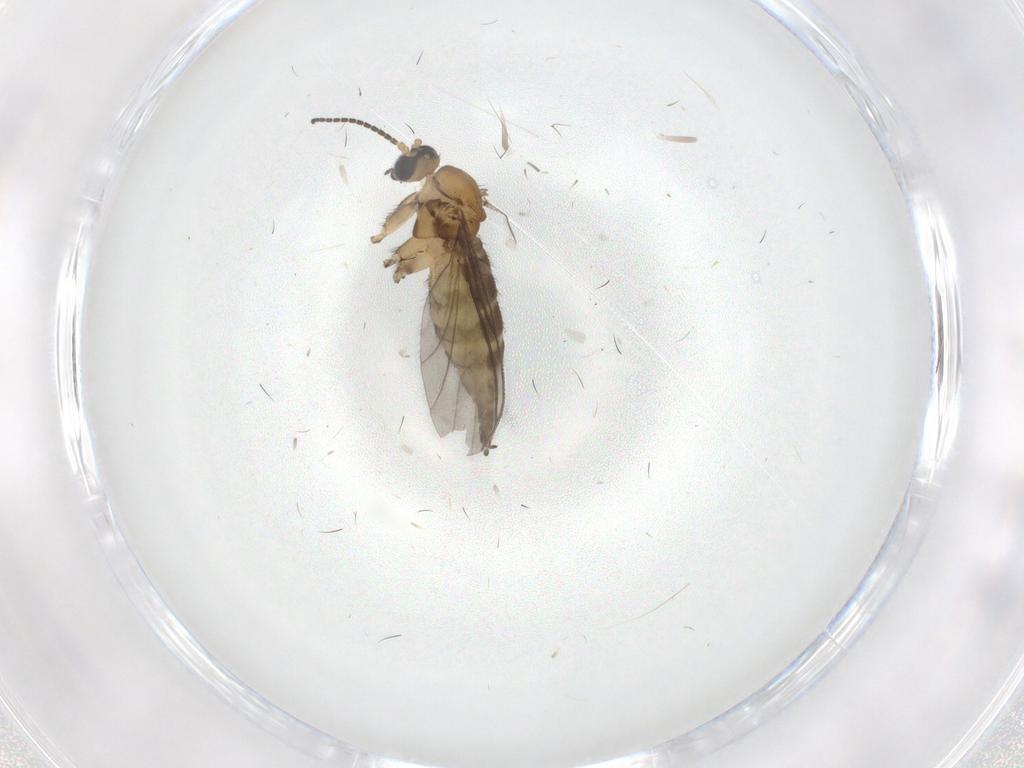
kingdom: Animalia
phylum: Arthropoda
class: Insecta
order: Diptera
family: Sciaridae
